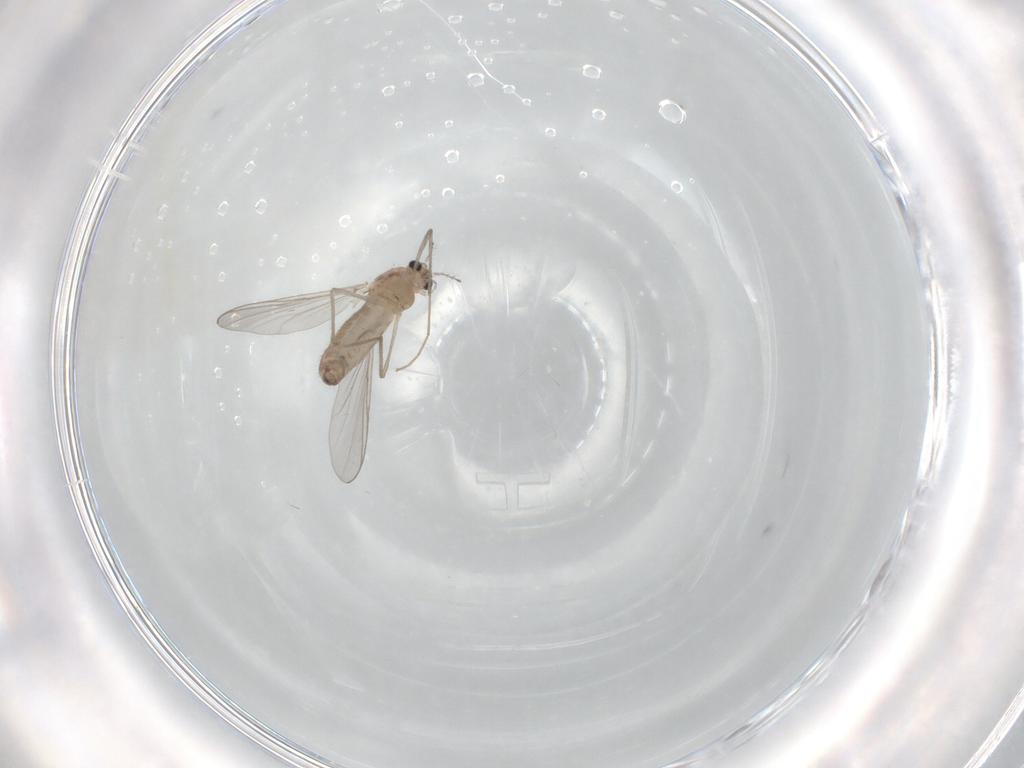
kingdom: Animalia
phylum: Arthropoda
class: Insecta
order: Diptera
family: Chironomidae
